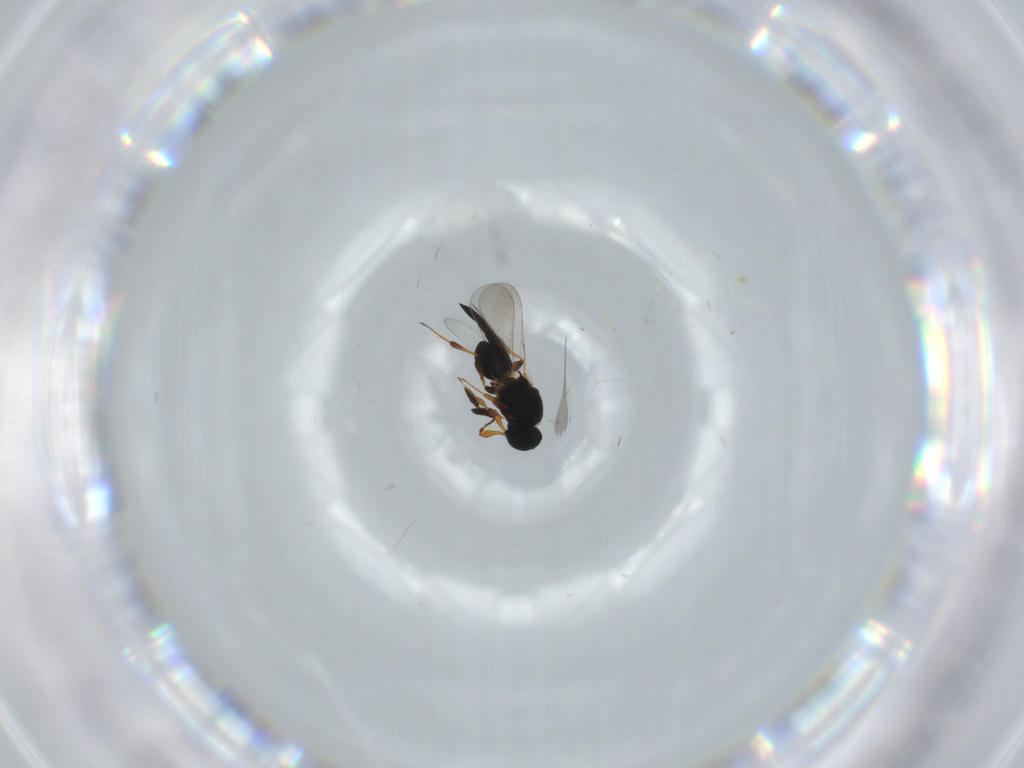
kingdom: Animalia
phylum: Arthropoda
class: Insecta
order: Hymenoptera
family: Platygastridae
